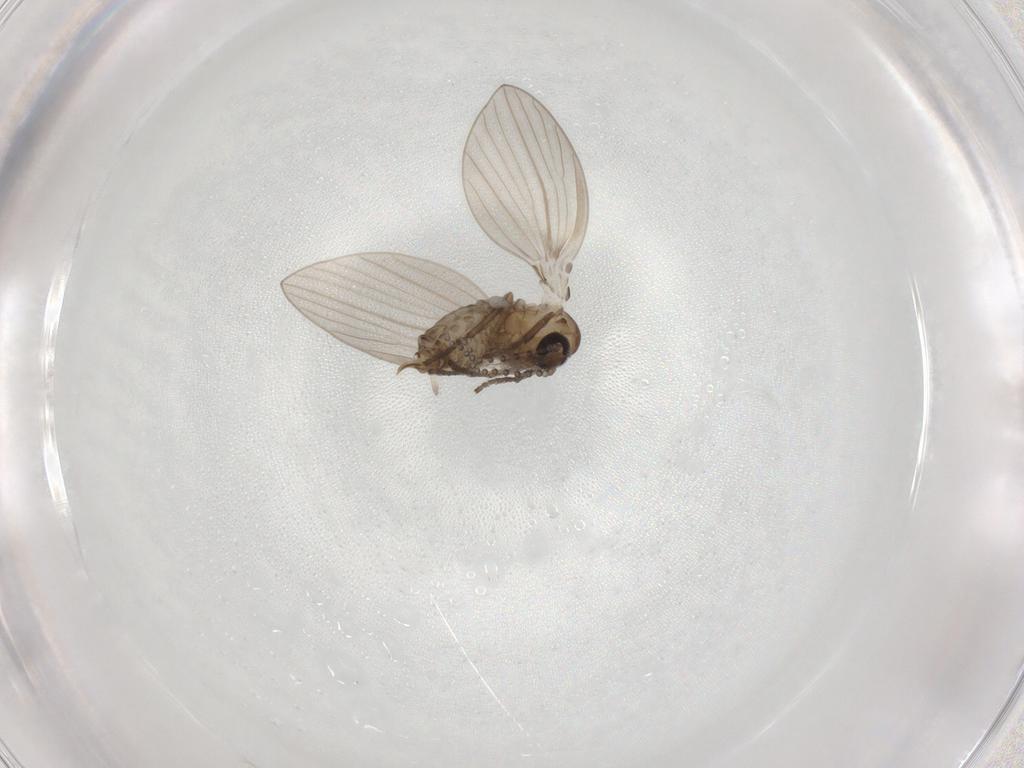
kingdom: Animalia
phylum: Arthropoda
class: Insecta
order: Diptera
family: Psychodidae
